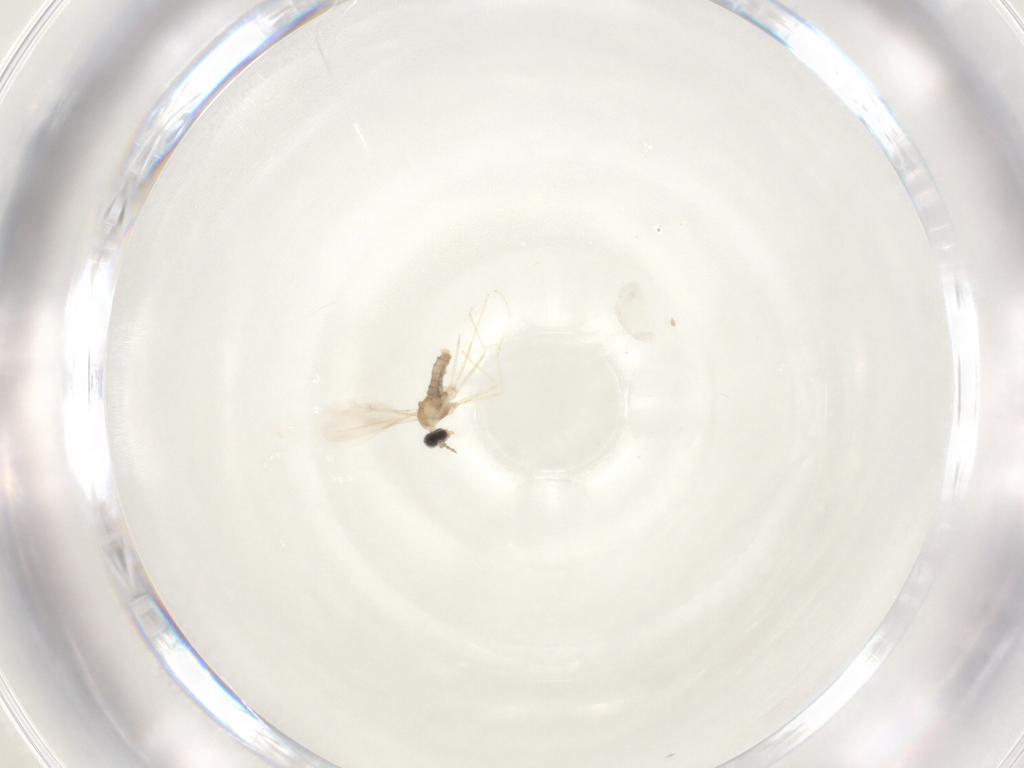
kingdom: Animalia
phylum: Arthropoda
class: Insecta
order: Diptera
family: Cecidomyiidae
